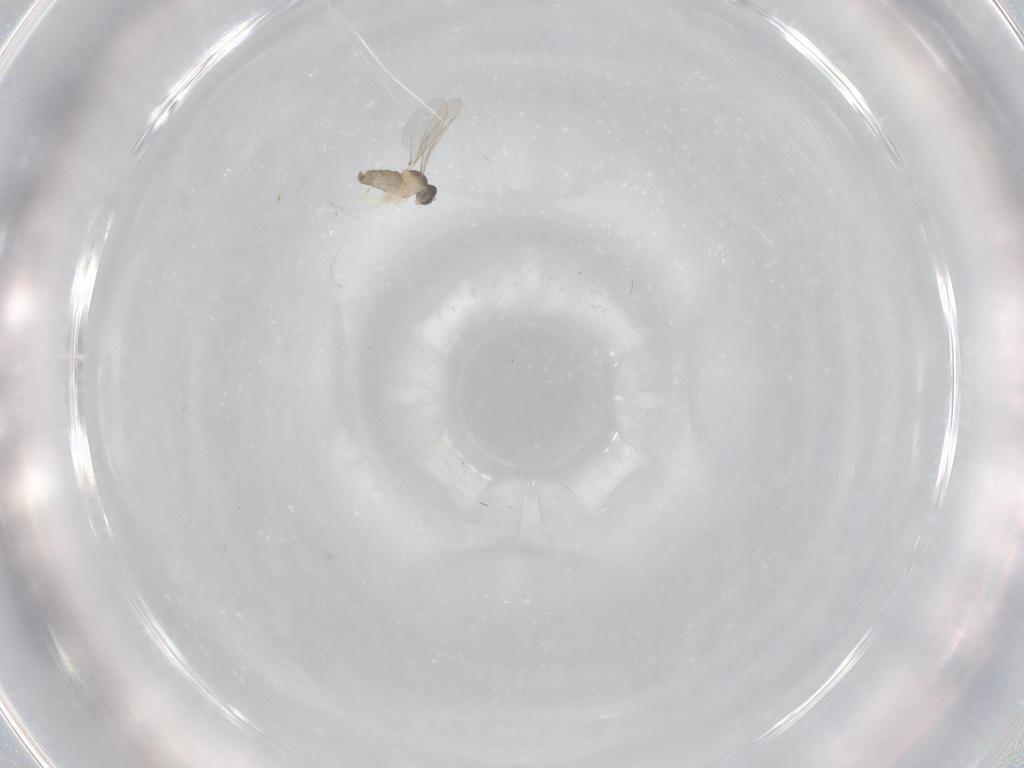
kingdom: Animalia
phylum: Arthropoda
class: Insecta
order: Diptera
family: Cecidomyiidae
